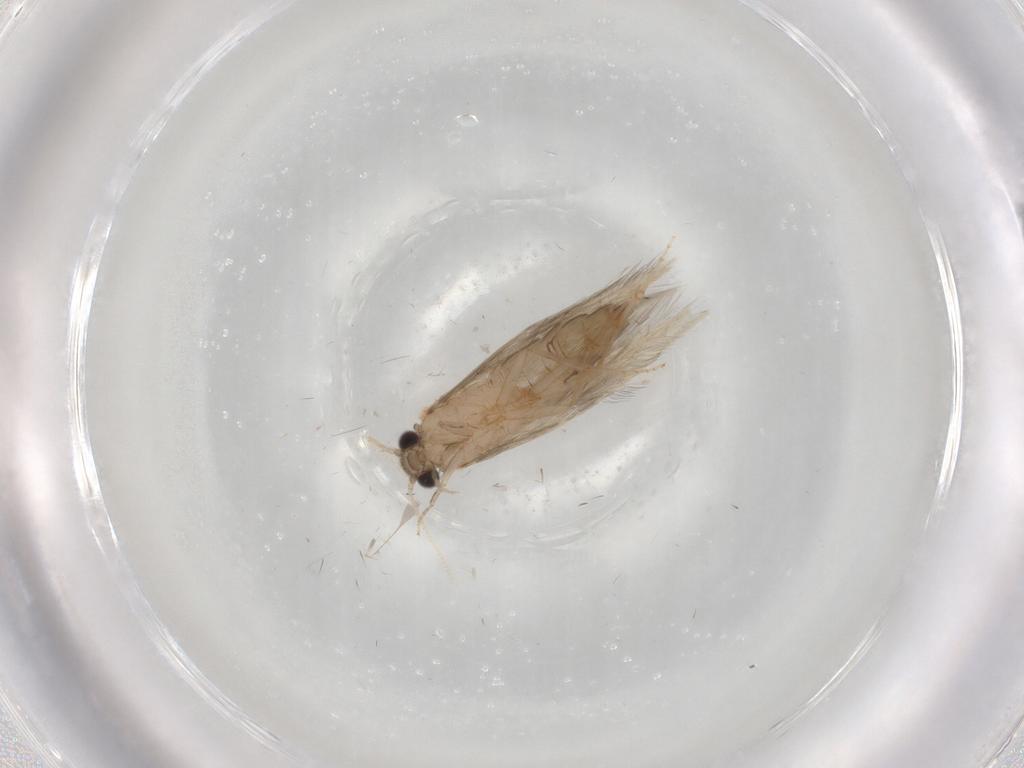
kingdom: Animalia
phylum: Arthropoda
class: Insecta
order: Trichoptera
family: Hydroptilidae
